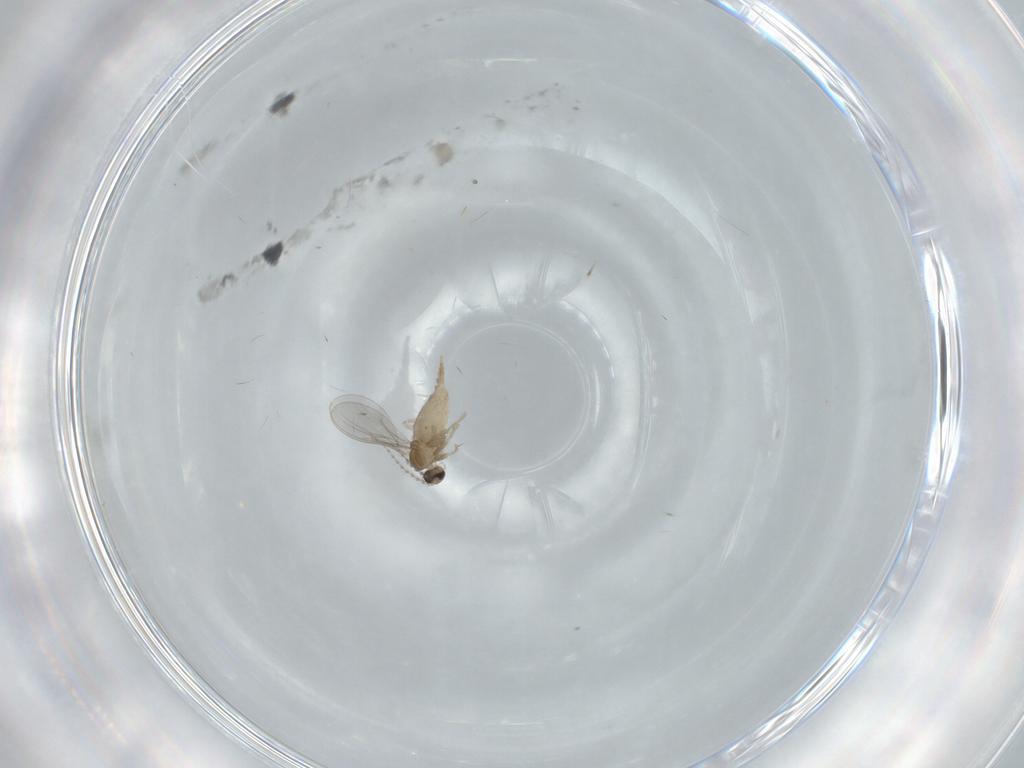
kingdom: Animalia
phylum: Arthropoda
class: Insecta
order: Diptera
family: Cecidomyiidae
